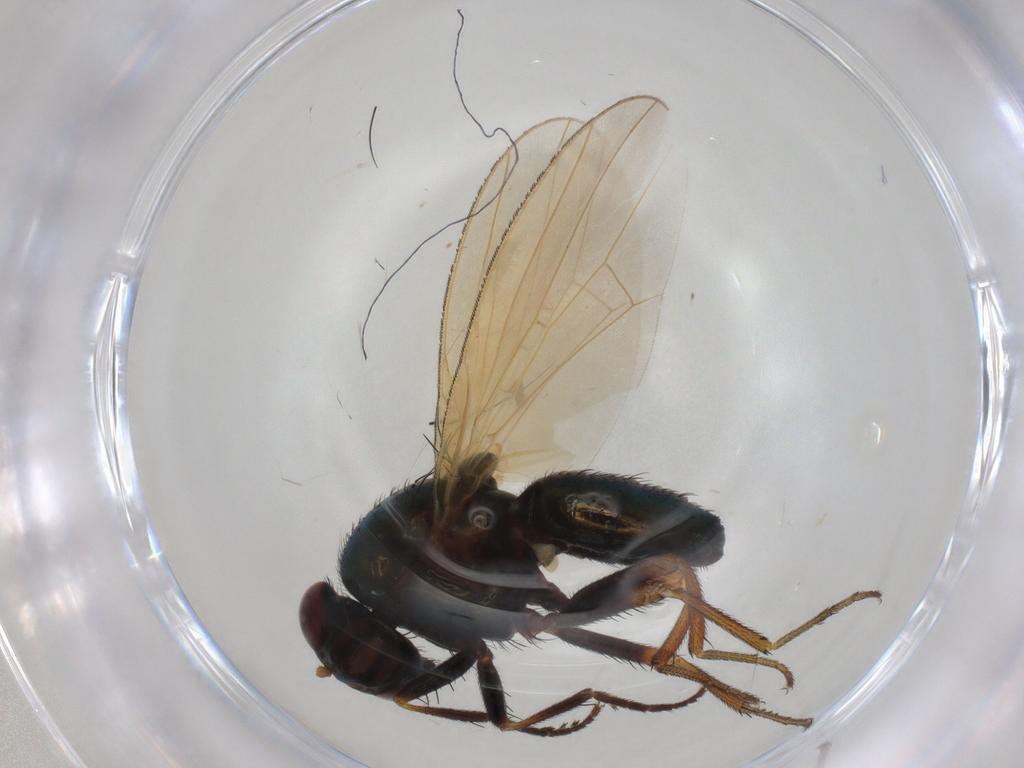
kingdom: Animalia
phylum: Arthropoda
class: Insecta
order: Diptera
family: Lauxaniidae
